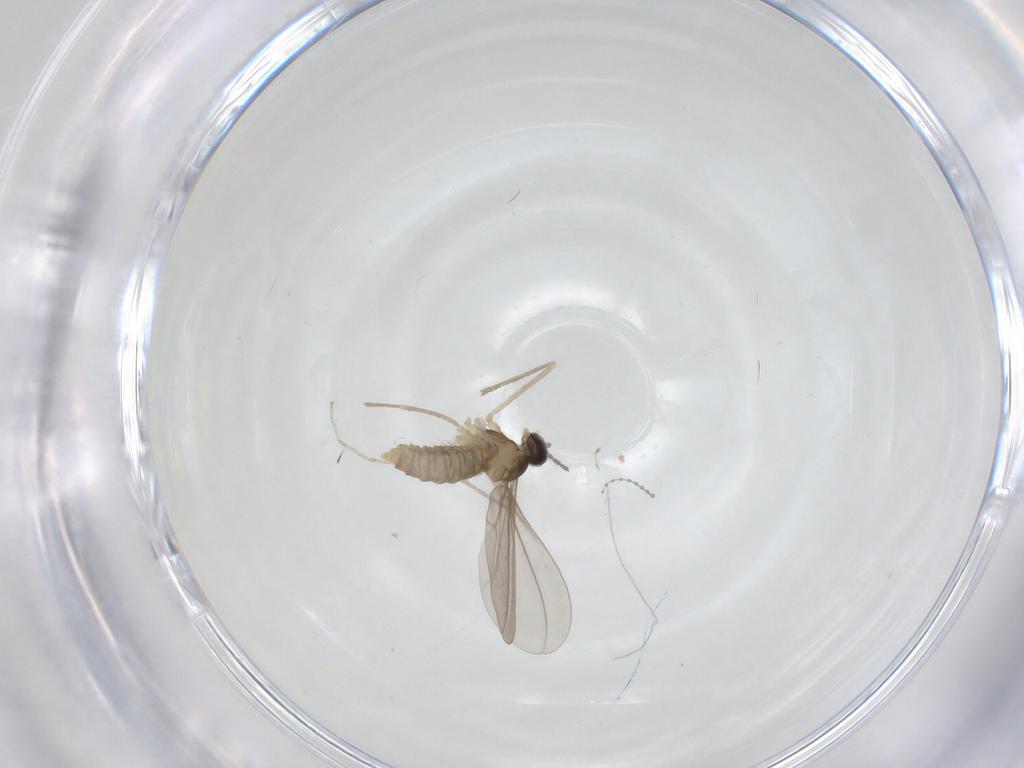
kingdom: Animalia
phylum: Arthropoda
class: Insecta
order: Diptera
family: Cecidomyiidae
